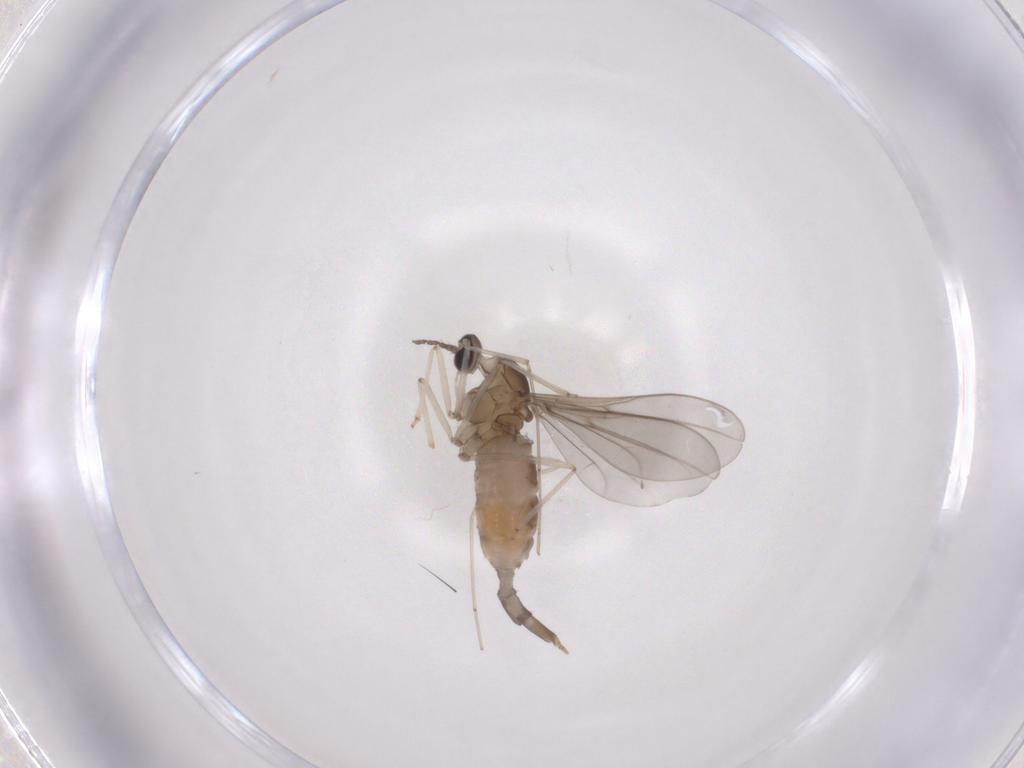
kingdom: Animalia
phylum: Arthropoda
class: Insecta
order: Diptera
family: Cecidomyiidae
